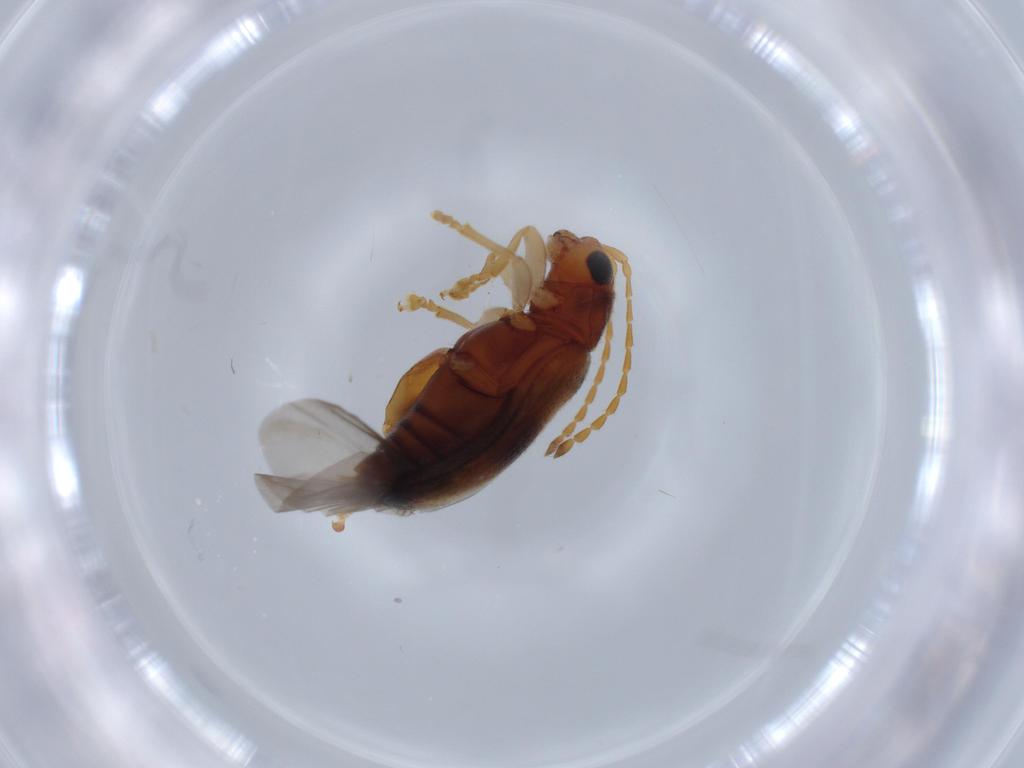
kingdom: Animalia
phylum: Arthropoda
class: Insecta
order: Coleoptera
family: Chrysomelidae
